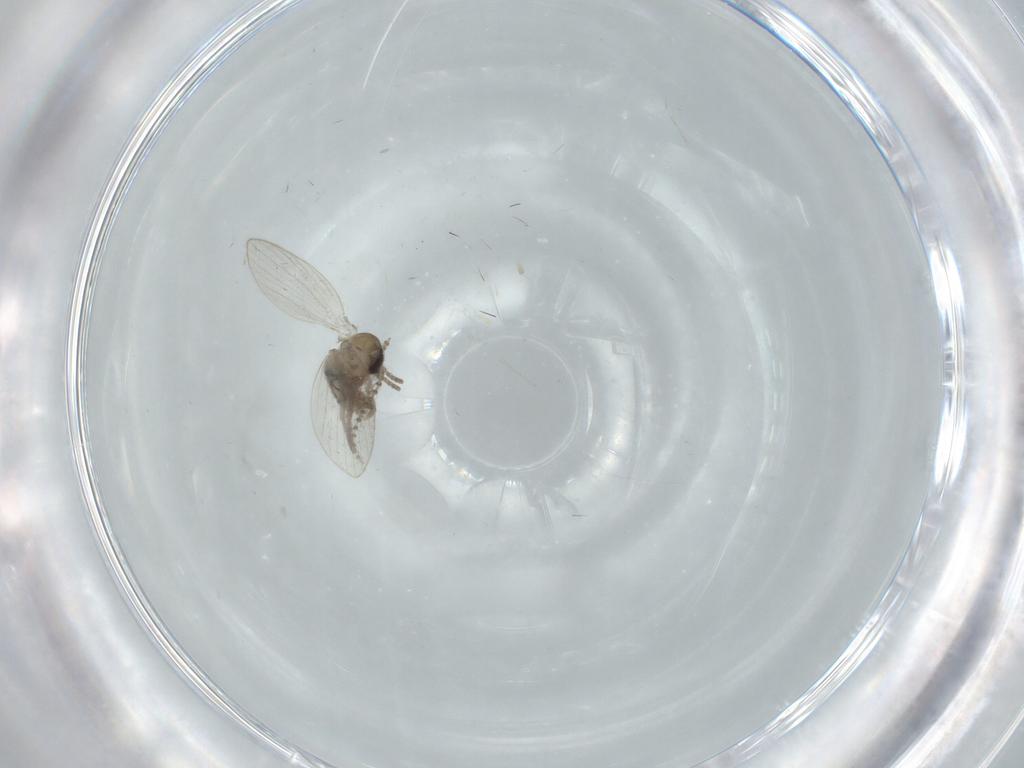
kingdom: Animalia
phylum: Arthropoda
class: Insecta
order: Diptera
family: Psychodidae
